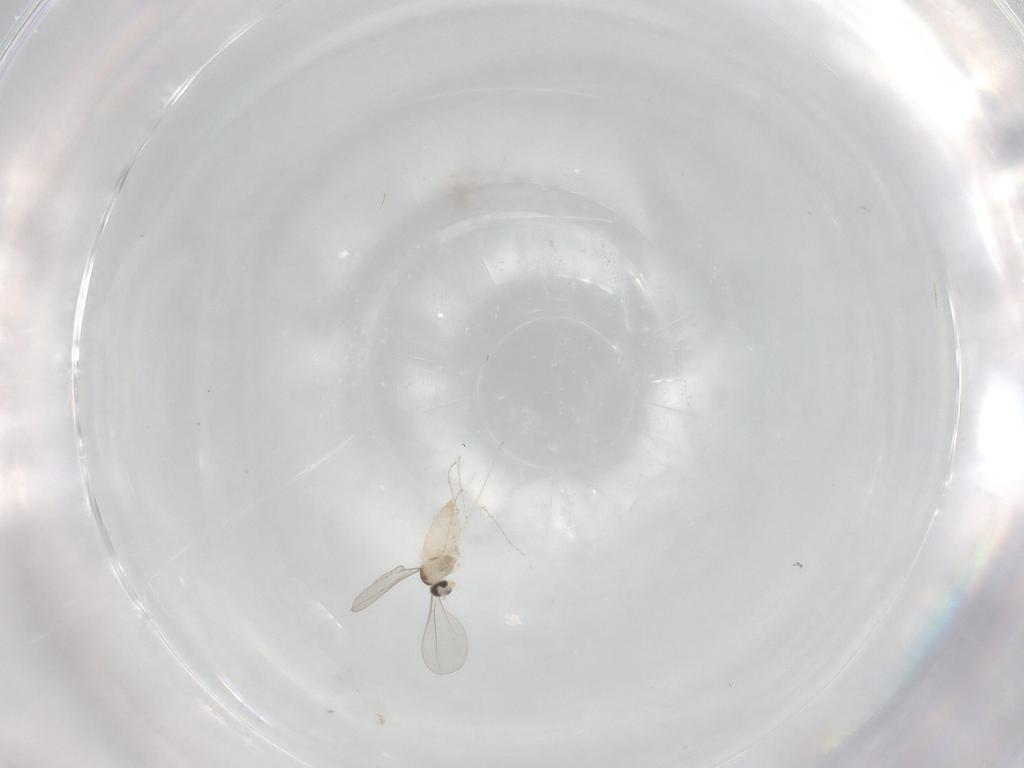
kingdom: Animalia
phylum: Arthropoda
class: Insecta
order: Diptera
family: Cecidomyiidae
